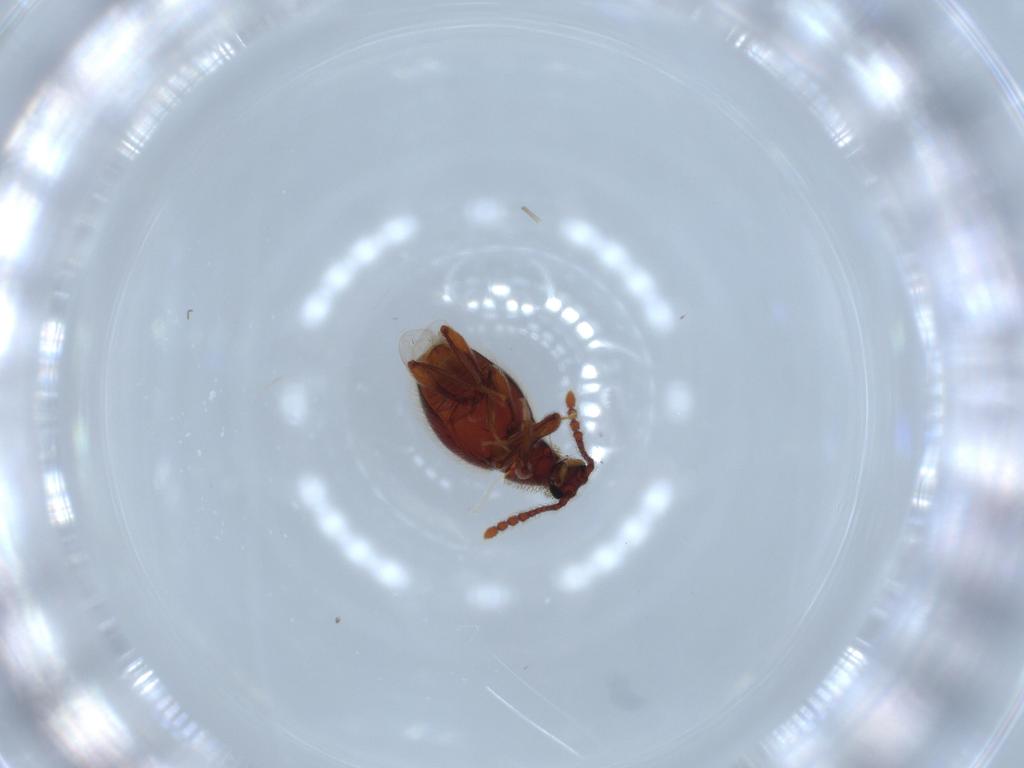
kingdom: Animalia
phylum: Arthropoda
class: Insecta
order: Coleoptera
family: Staphylinidae
